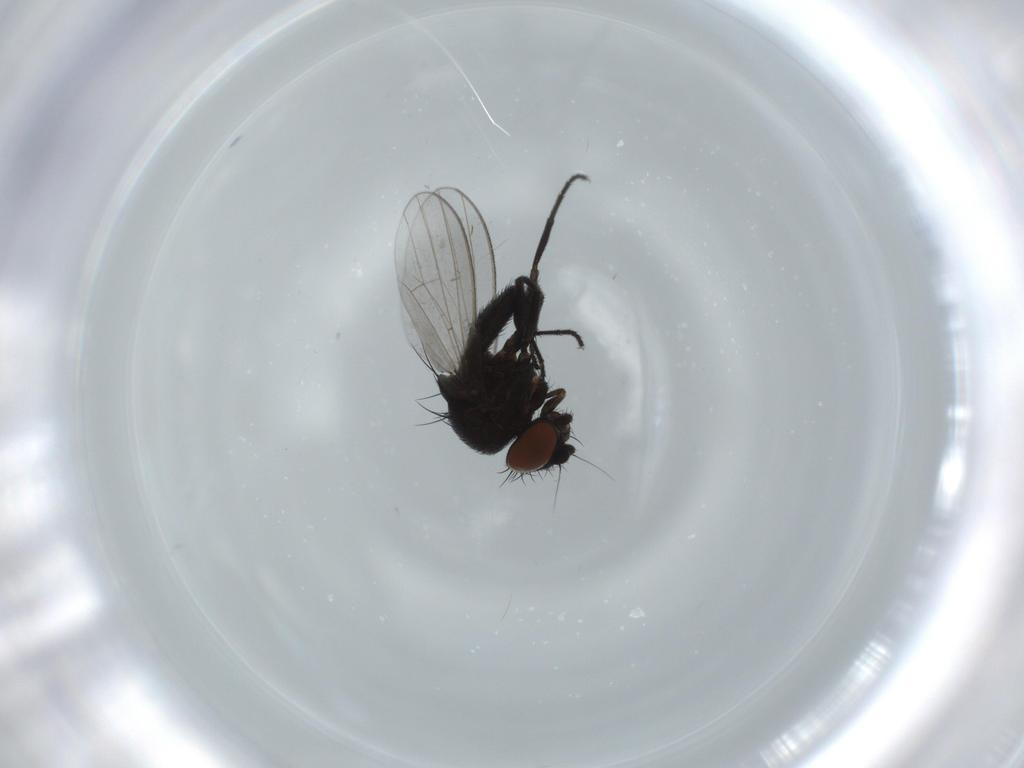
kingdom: Animalia
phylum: Arthropoda
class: Insecta
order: Diptera
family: Milichiidae
